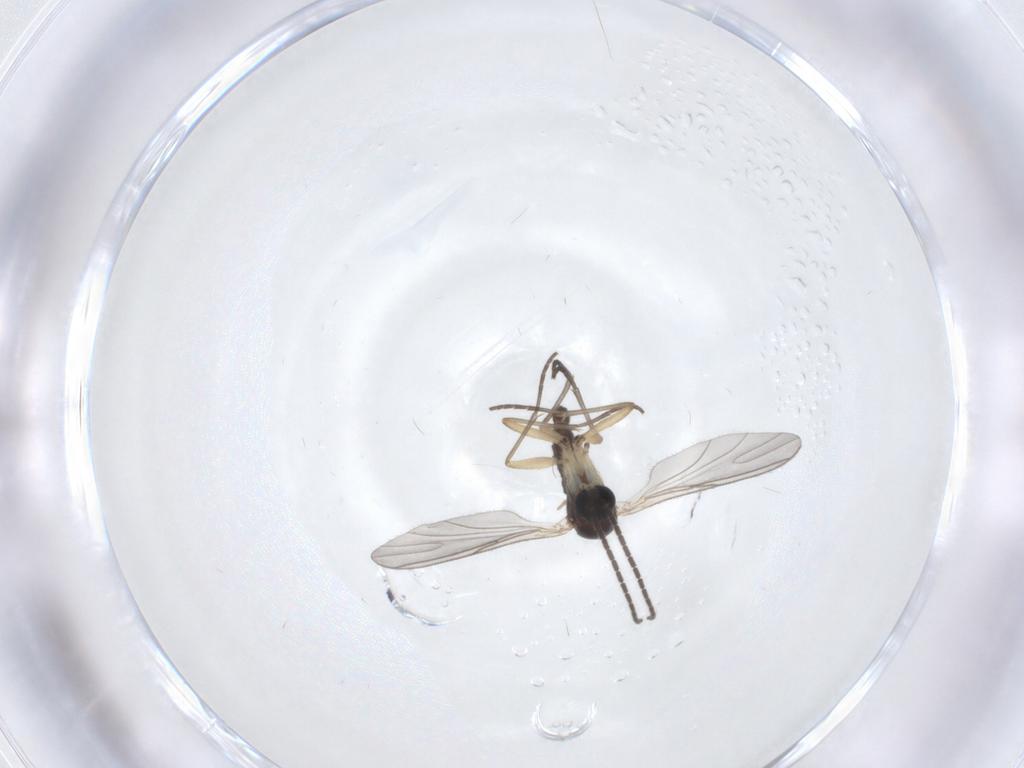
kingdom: Animalia
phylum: Arthropoda
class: Insecta
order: Diptera
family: Sciaridae
